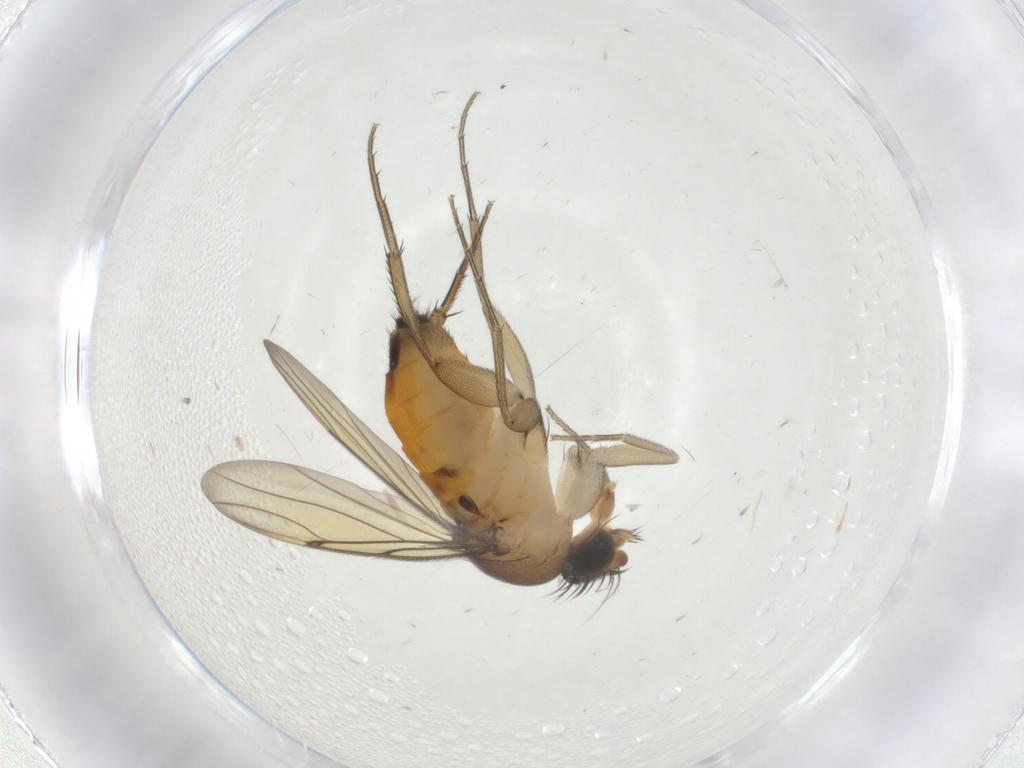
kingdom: Animalia
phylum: Arthropoda
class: Insecta
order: Diptera
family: Phoridae
